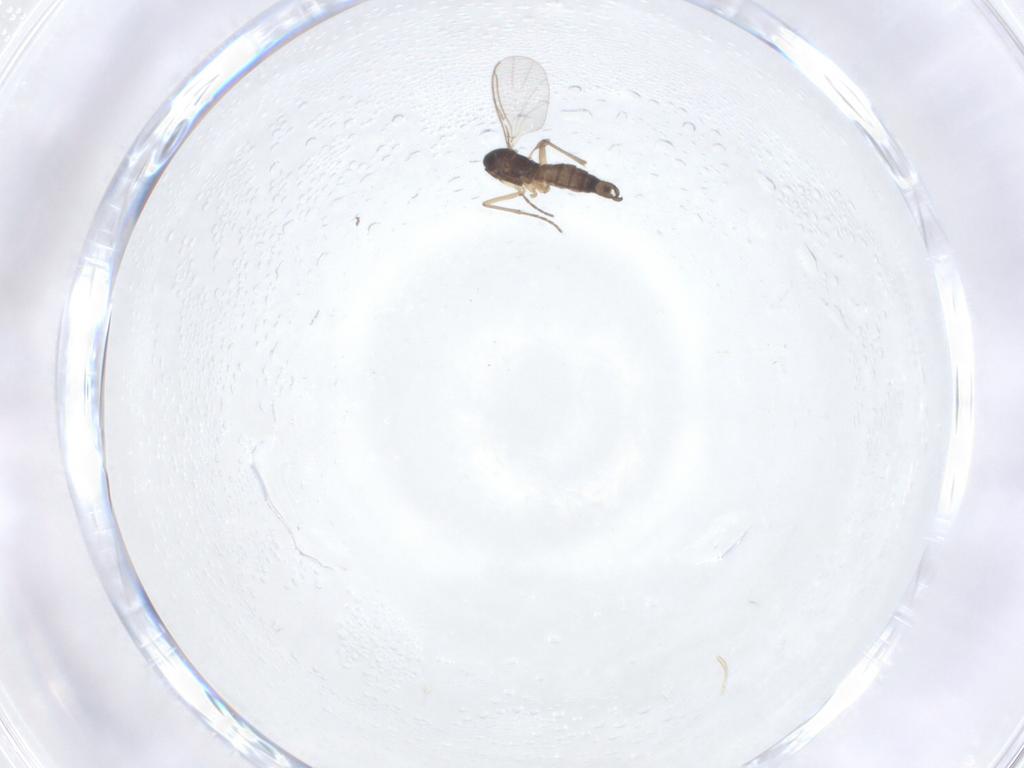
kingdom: Animalia
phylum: Arthropoda
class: Insecta
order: Diptera
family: Sciaridae
